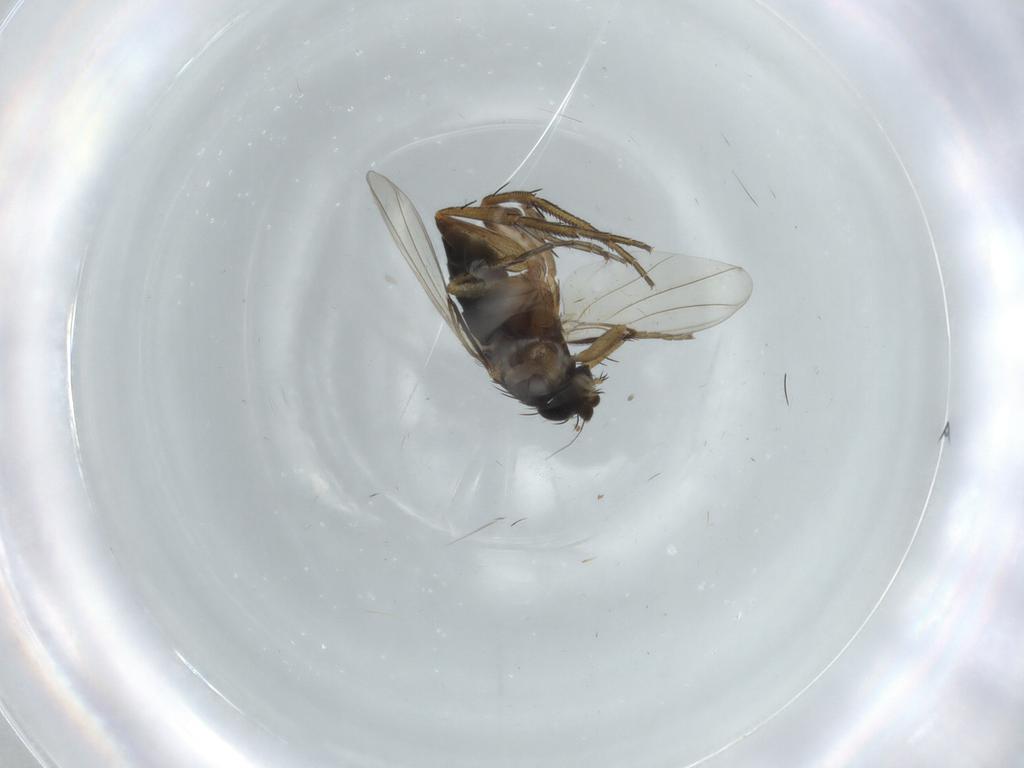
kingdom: Animalia
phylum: Arthropoda
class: Insecta
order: Diptera
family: Phoridae
